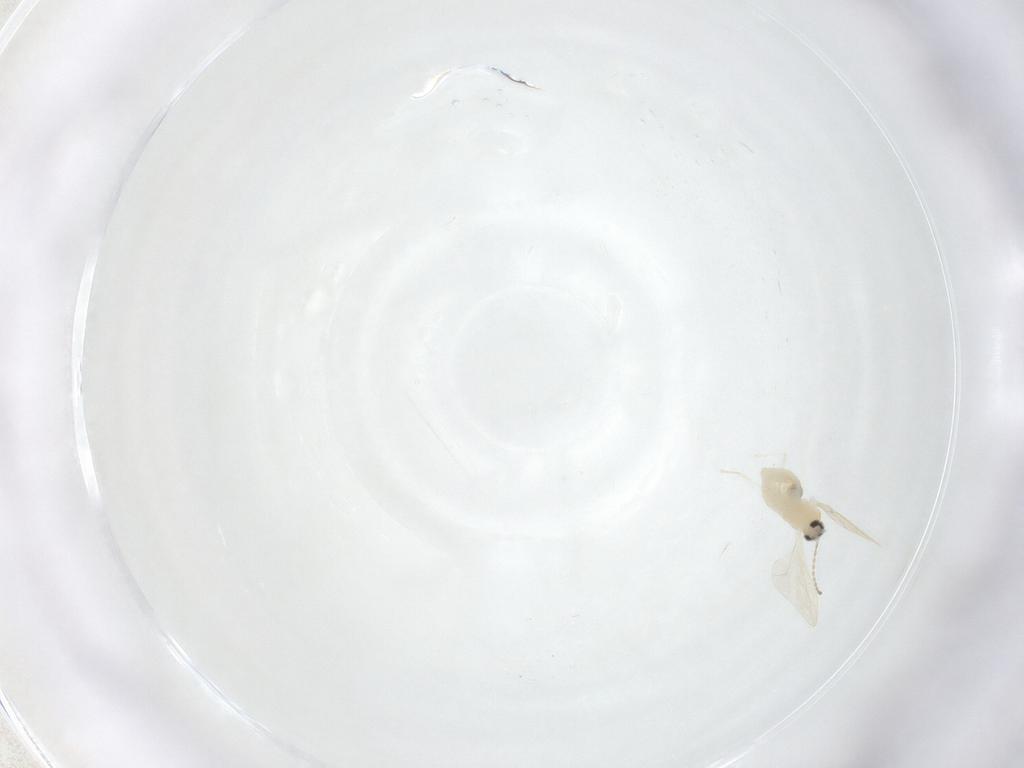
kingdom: Animalia
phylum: Arthropoda
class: Insecta
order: Diptera
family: Cecidomyiidae
